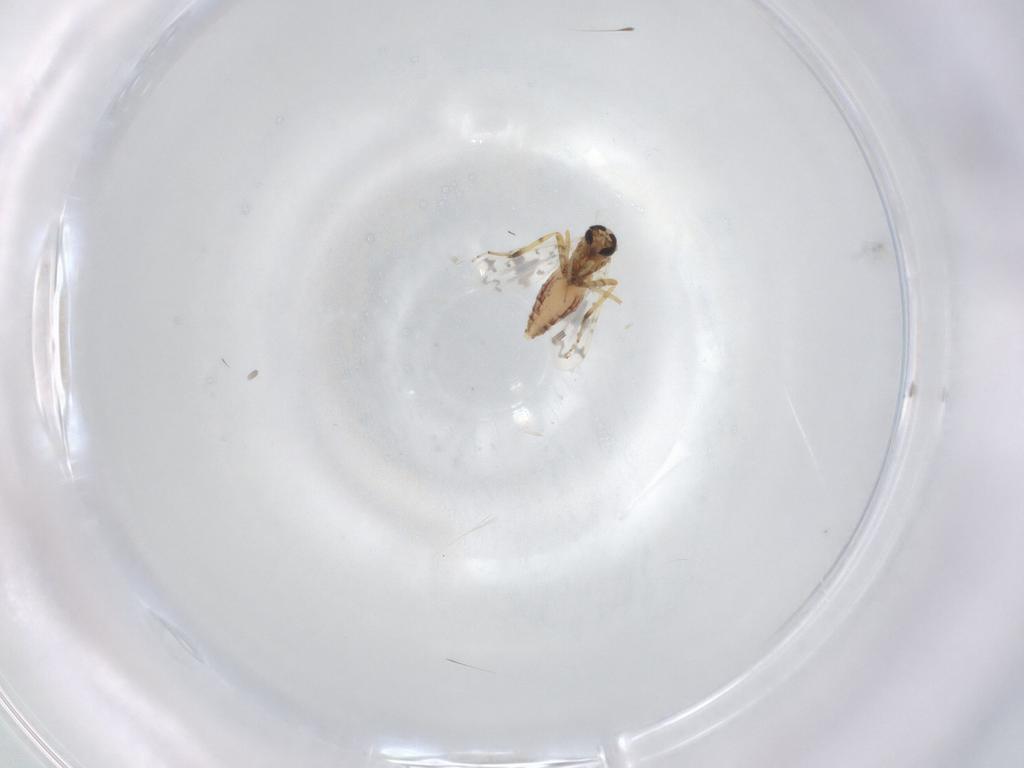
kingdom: Animalia
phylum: Arthropoda
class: Insecta
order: Diptera
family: Ceratopogonidae
